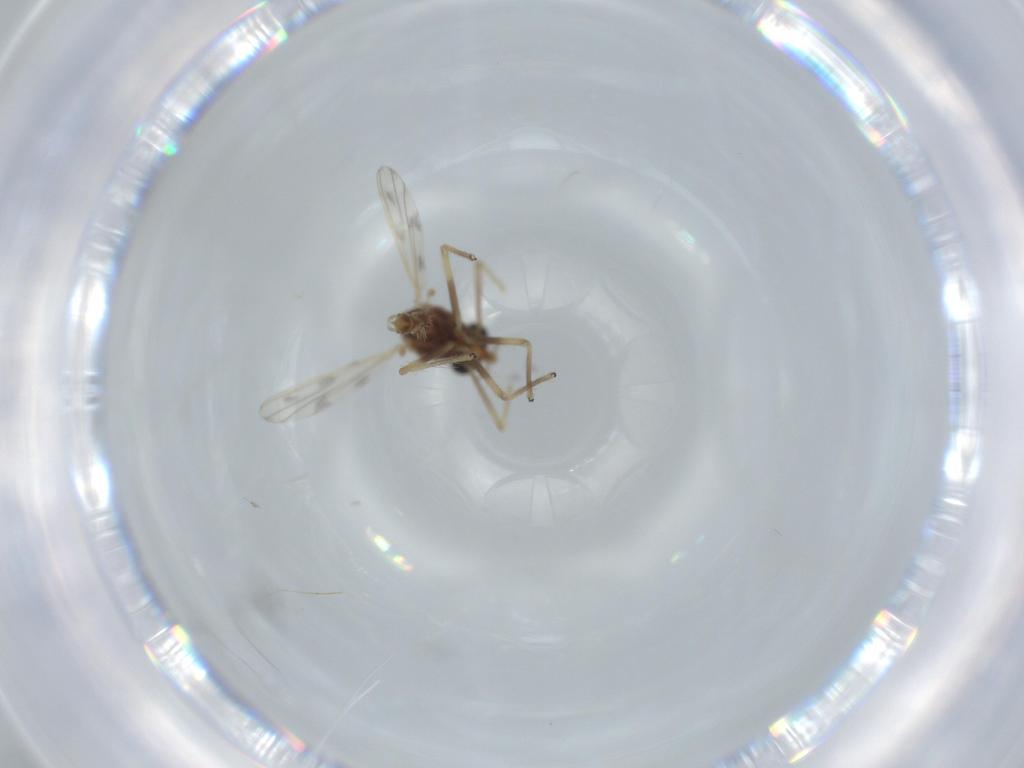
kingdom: Animalia
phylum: Arthropoda
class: Insecta
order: Diptera
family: Chironomidae
